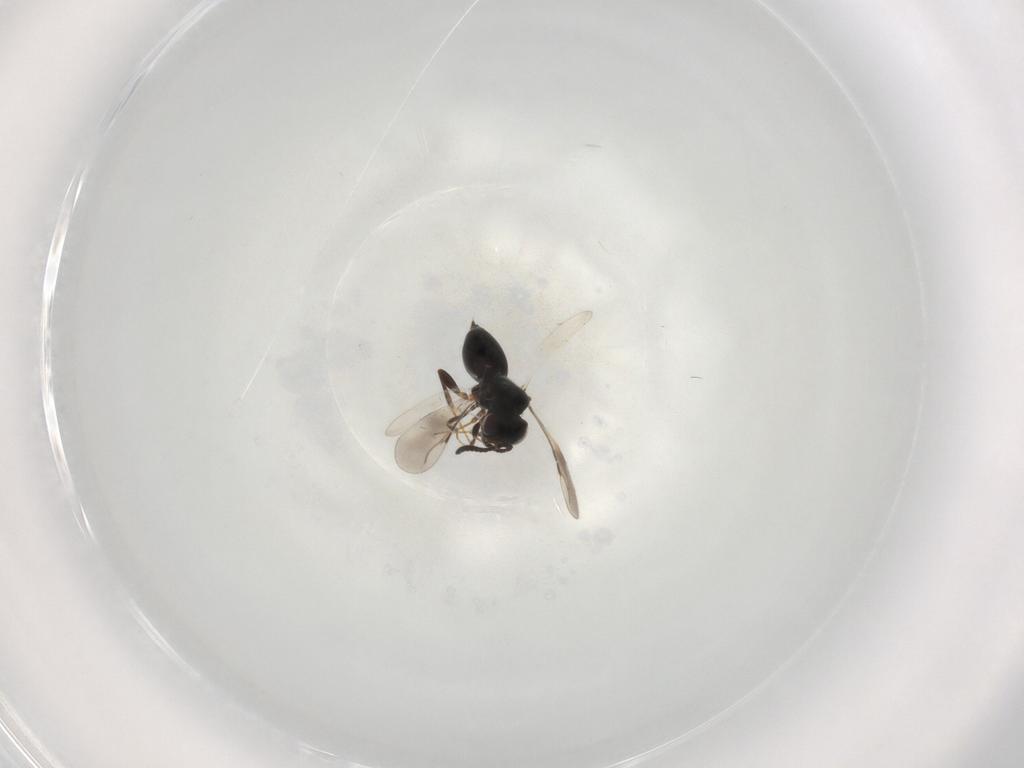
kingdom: Animalia
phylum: Arthropoda
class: Insecta
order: Hymenoptera
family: Ceraphronidae
